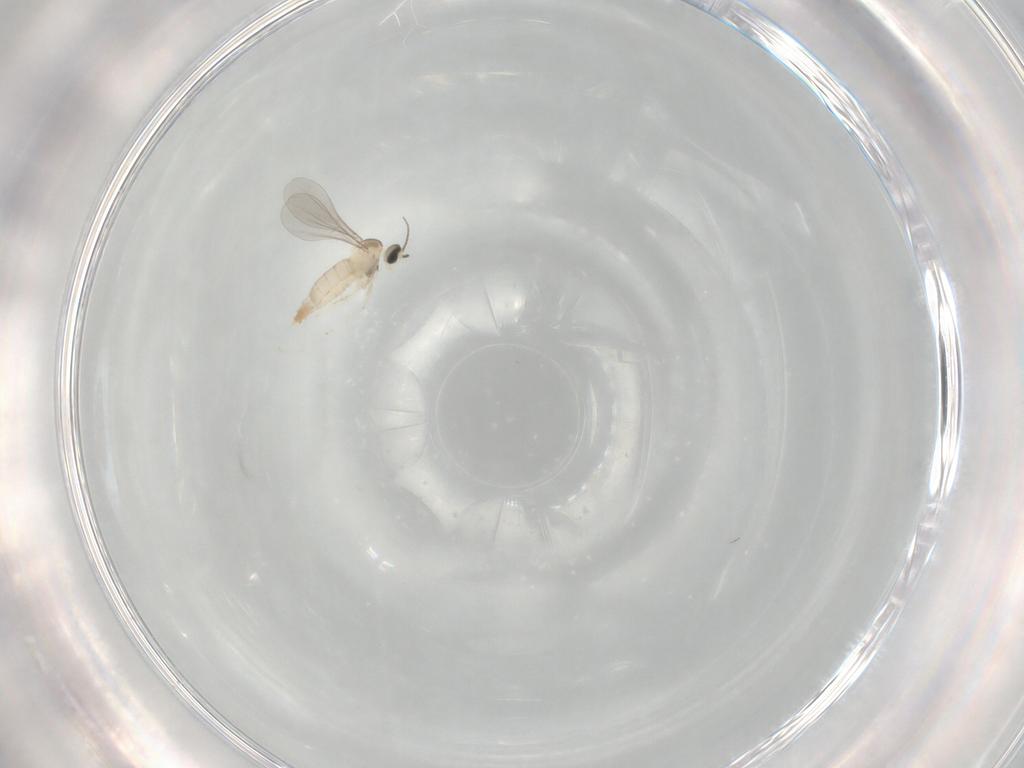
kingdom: Animalia
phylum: Arthropoda
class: Insecta
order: Diptera
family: Cecidomyiidae
